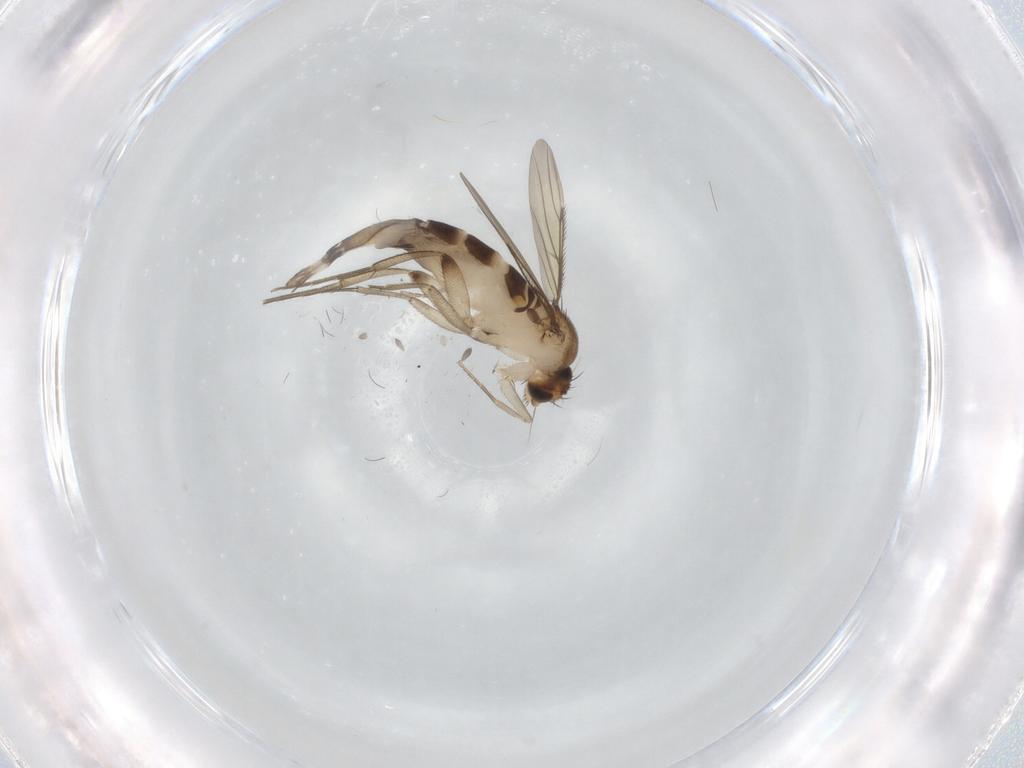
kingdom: Animalia
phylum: Arthropoda
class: Insecta
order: Diptera
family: Phoridae
